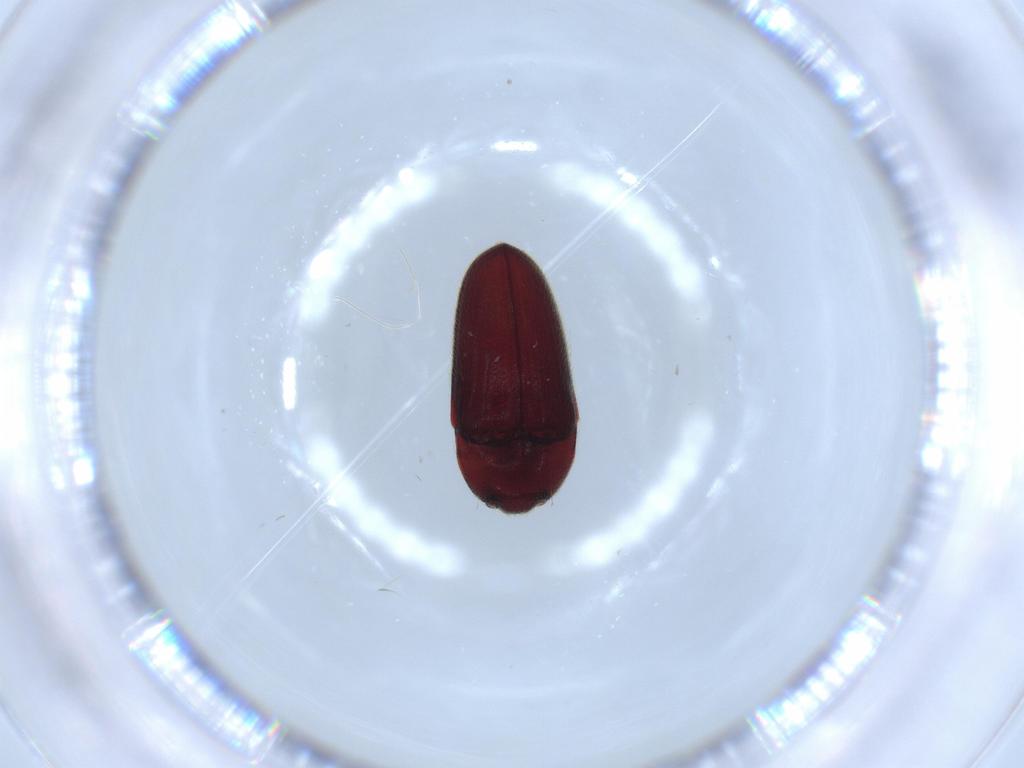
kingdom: Animalia
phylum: Arthropoda
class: Insecta
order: Coleoptera
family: Throscidae
